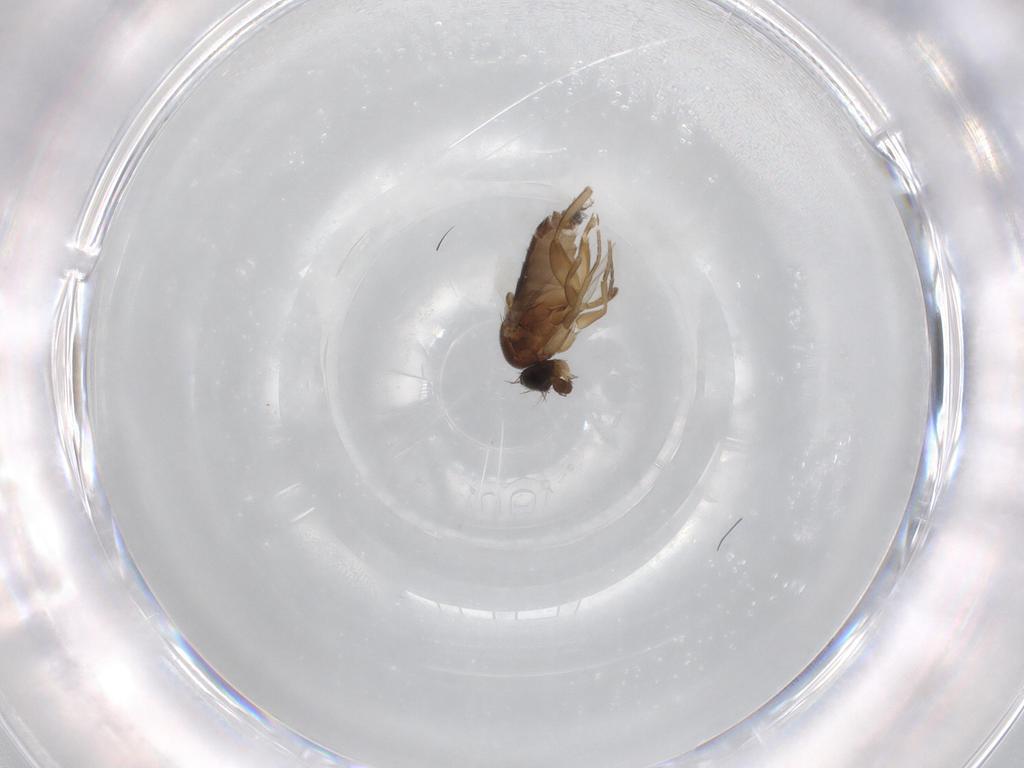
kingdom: Animalia
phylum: Arthropoda
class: Insecta
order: Diptera
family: Phoridae
